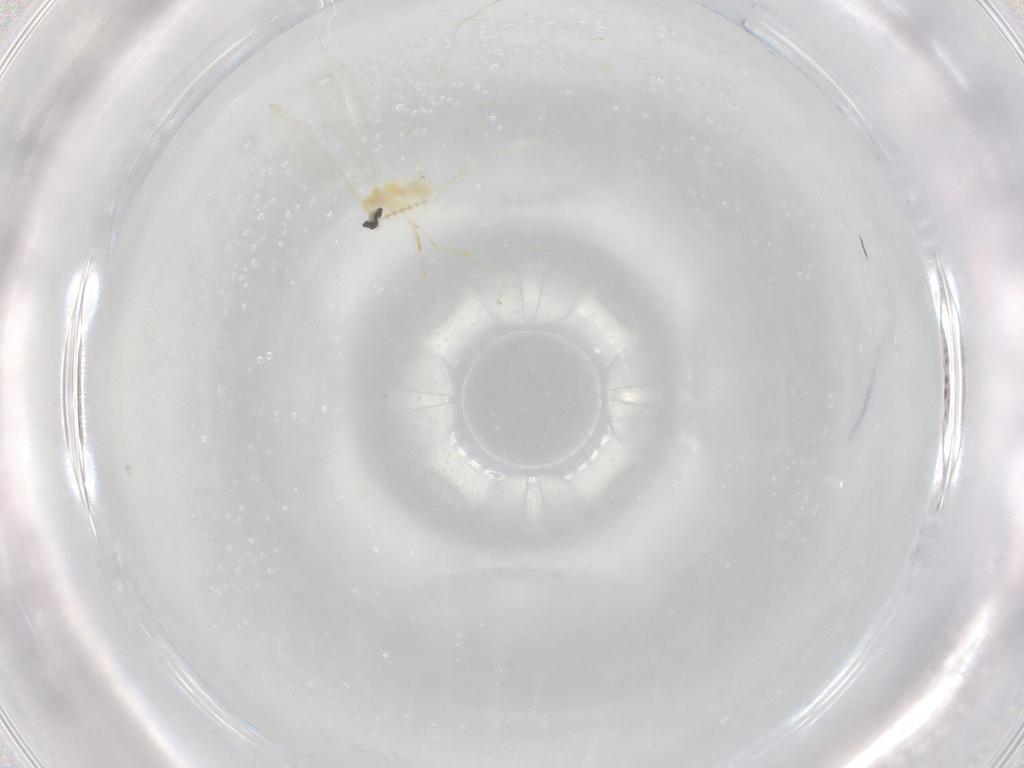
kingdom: Animalia
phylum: Arthropoda
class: Insecta
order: Diptera
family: Cecidomyiidae
